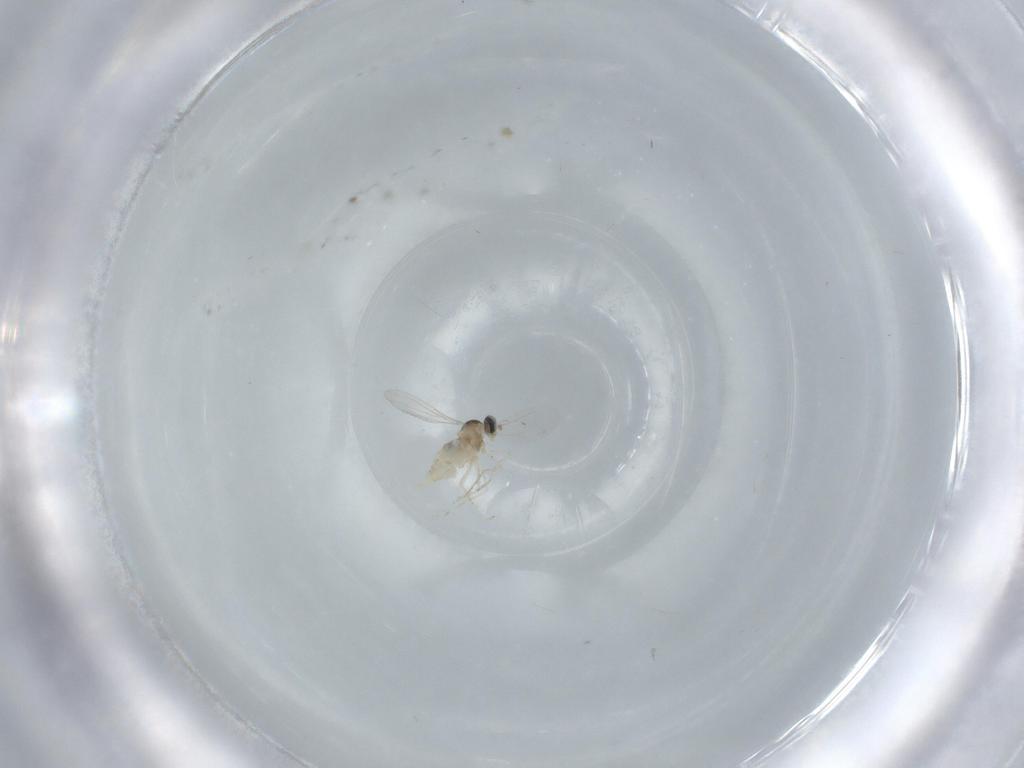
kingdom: Animalia
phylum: Arthropoda
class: Insecta
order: Diptera
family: Cecidomyiidae
